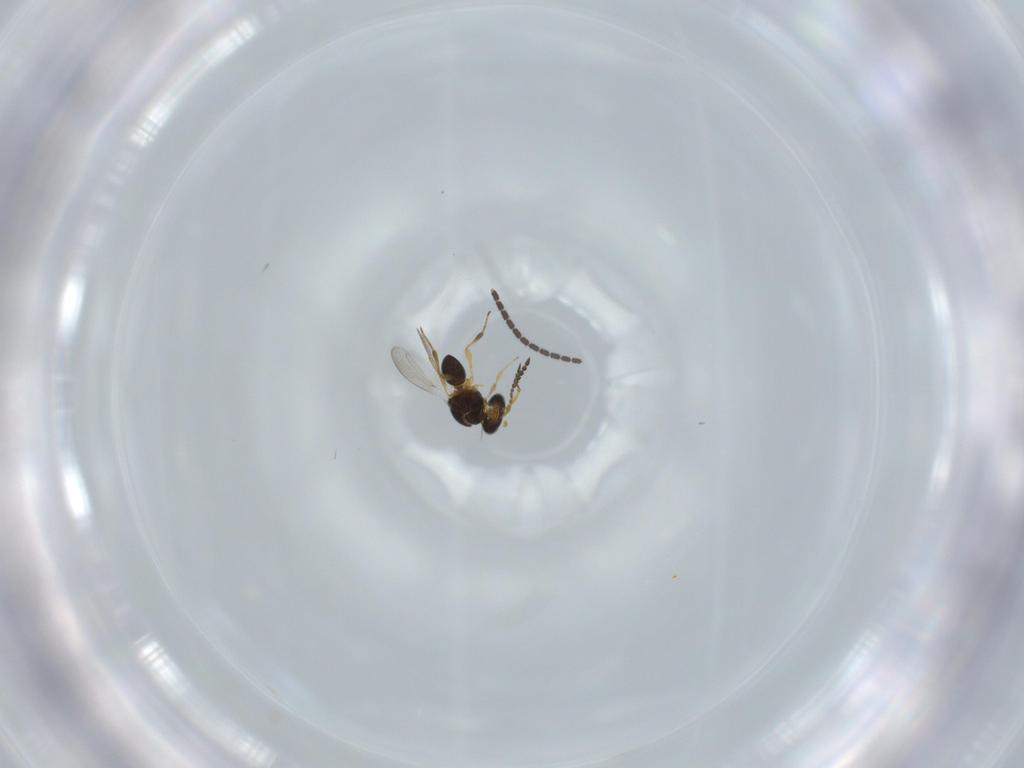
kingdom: Animalia
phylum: Arthropoda
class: Insecta
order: Hymenoptera
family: Platygastridae
